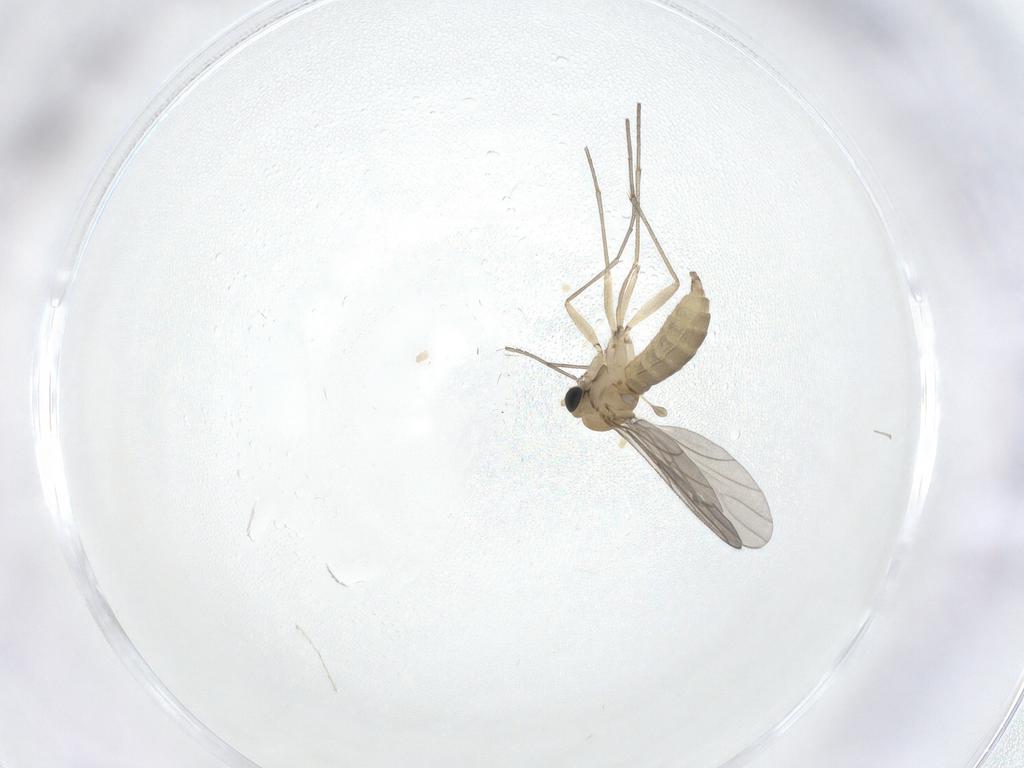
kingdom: Animalia
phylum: Arthropoda
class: Insecta
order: Diptera
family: Sciaridae
